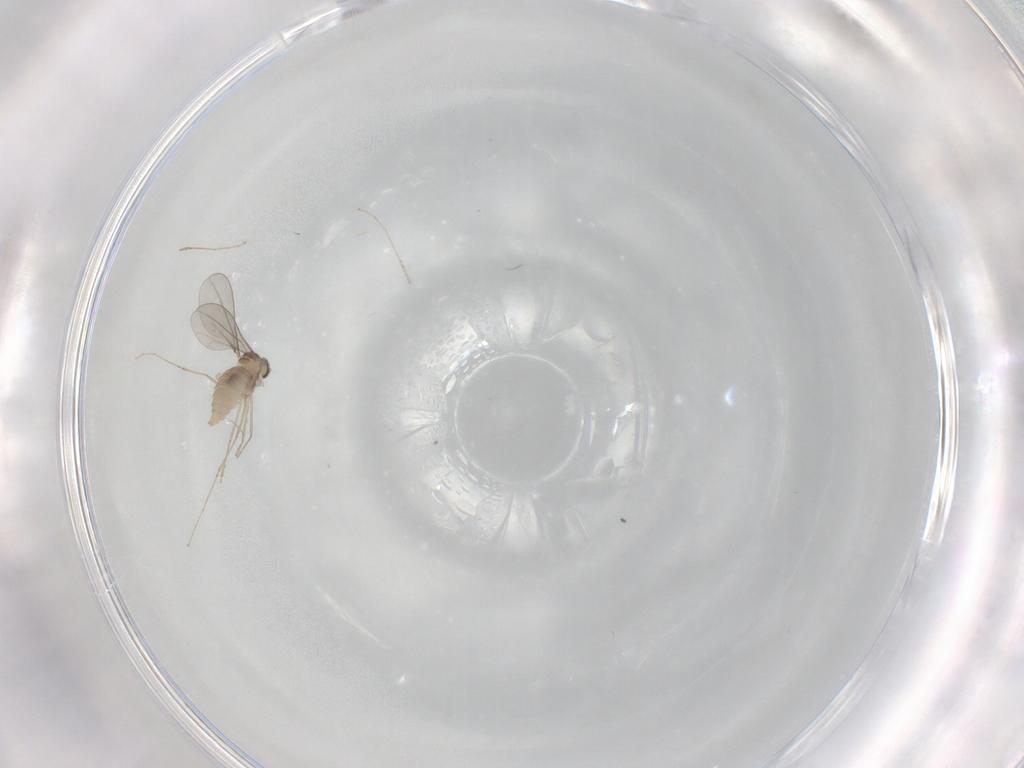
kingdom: Animalia
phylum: Arthropoda
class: Insecta
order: Diptera
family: Cecidomyiidae
